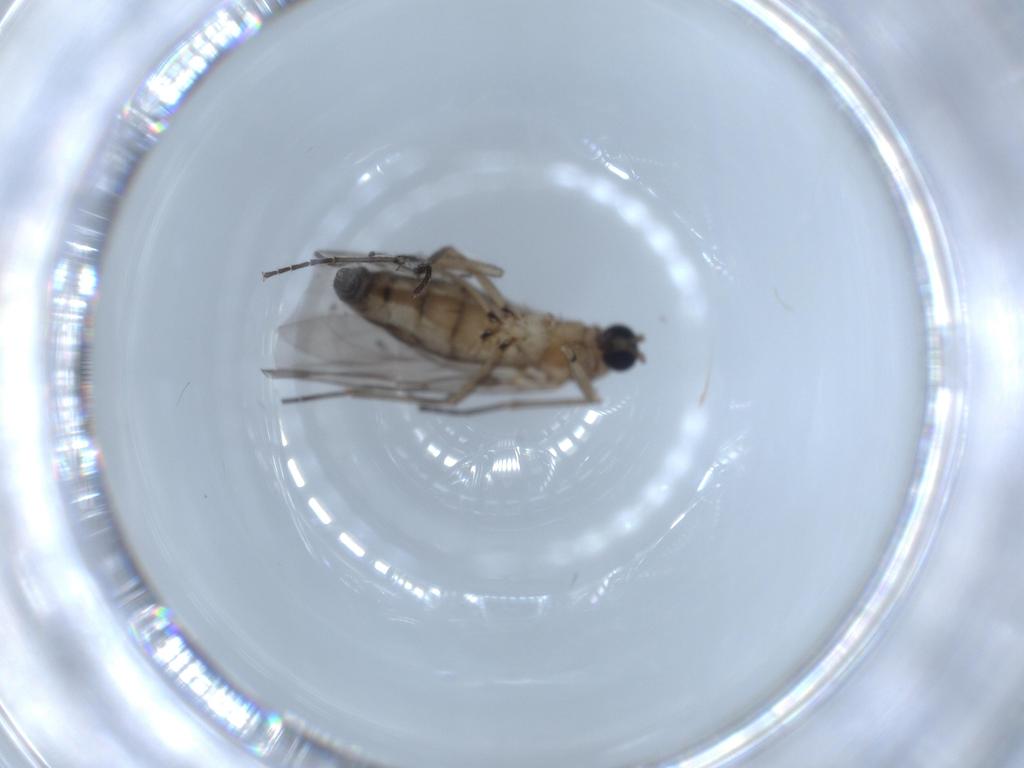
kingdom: Animalia
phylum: Arthropoda
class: Insecta
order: Diptera
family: Sciaridae
